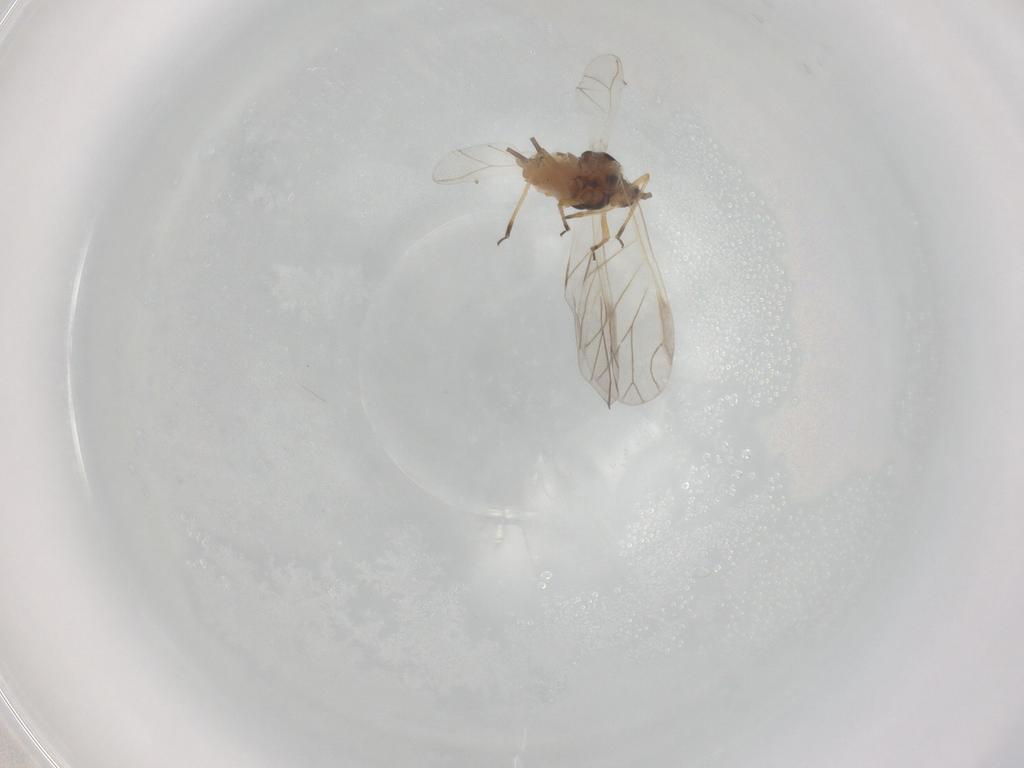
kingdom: Animalia
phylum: Arthropoda
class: Insecta
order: Hemiptera
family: Aphididae
